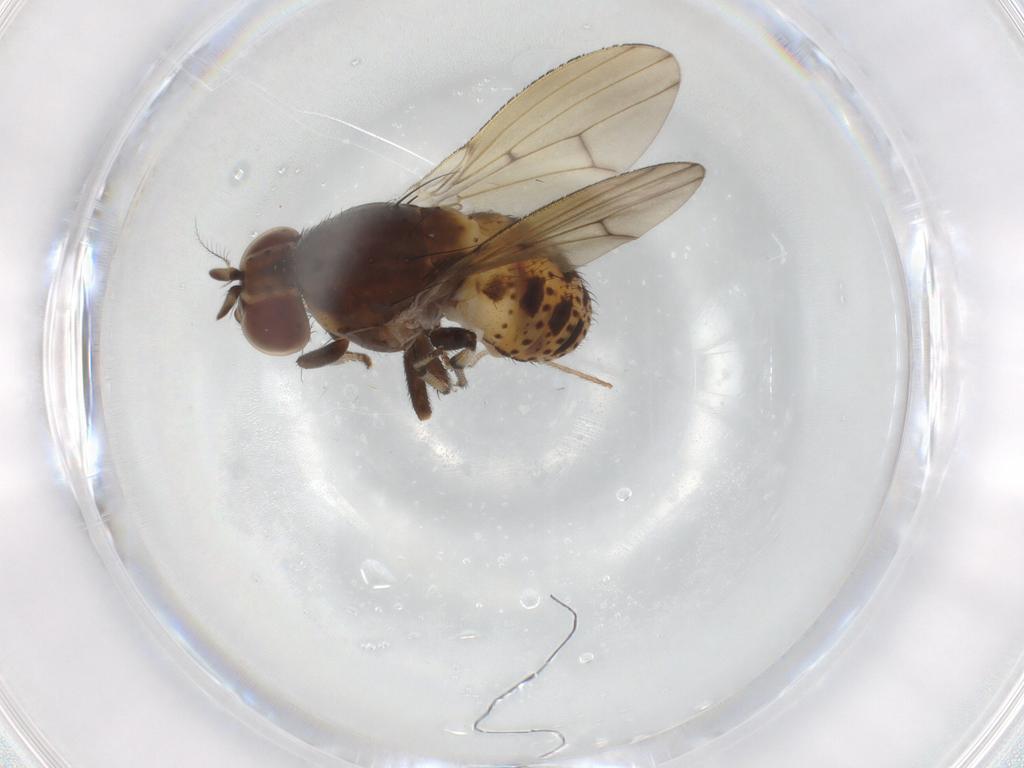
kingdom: Animalia
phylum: Arthropoda
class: Insecta
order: Diptera
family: Lauxaniidae
